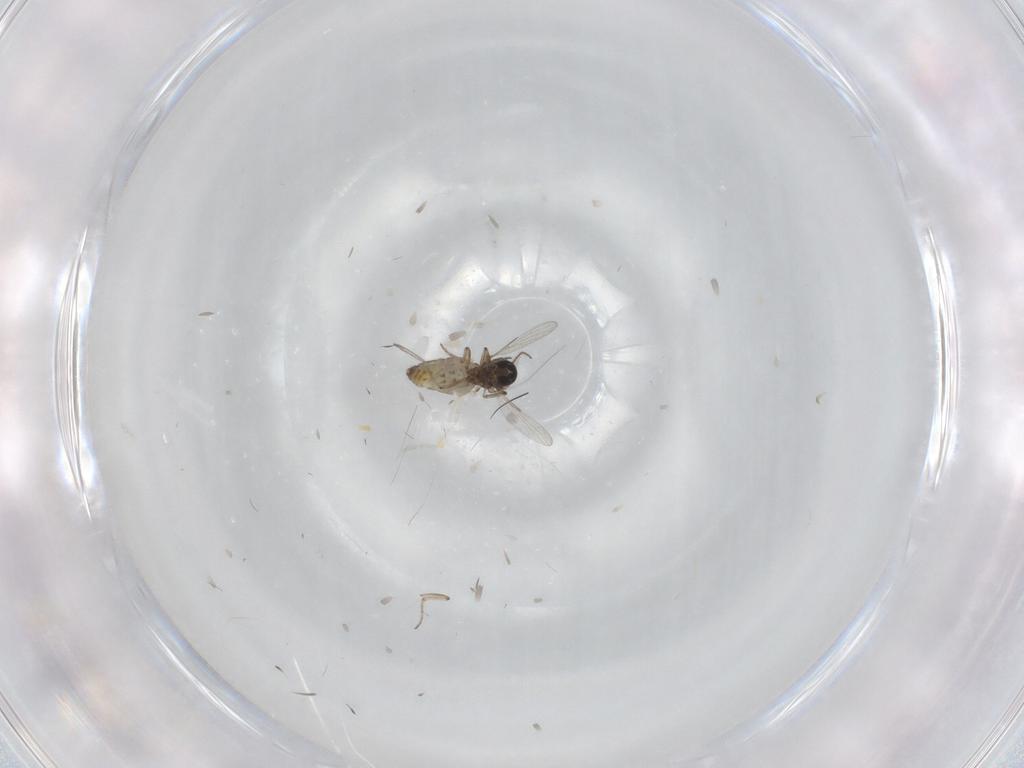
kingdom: Animalia
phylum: Arthropoda
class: Insecta
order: Diptera
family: Ceratopogonidae
